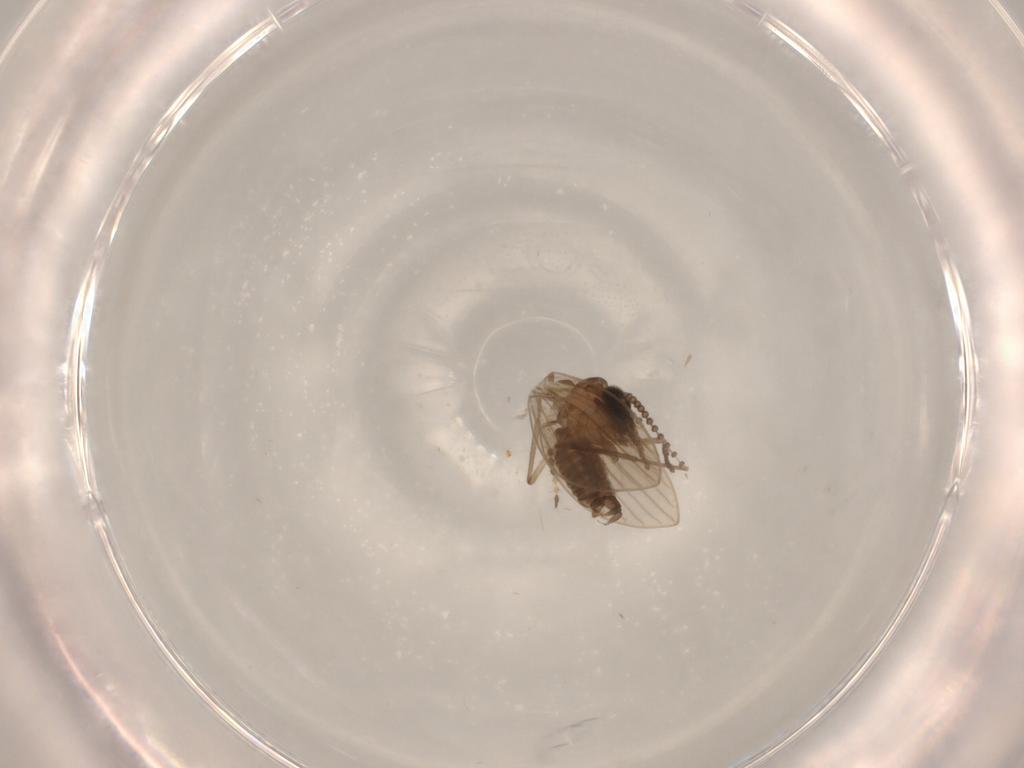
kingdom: Animalia
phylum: Arthropoda
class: Insecta
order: Diptera
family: Cecidomyiidae
